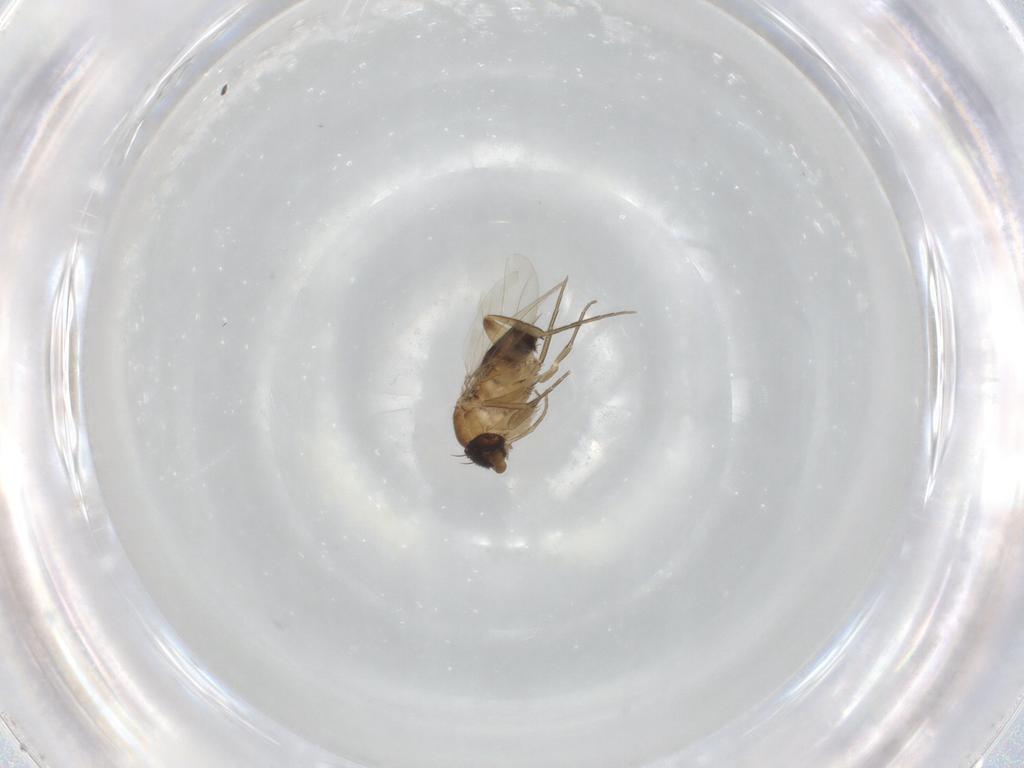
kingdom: Animalia
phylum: Arthropoda
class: Insecta
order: Diptera
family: Phoridae
